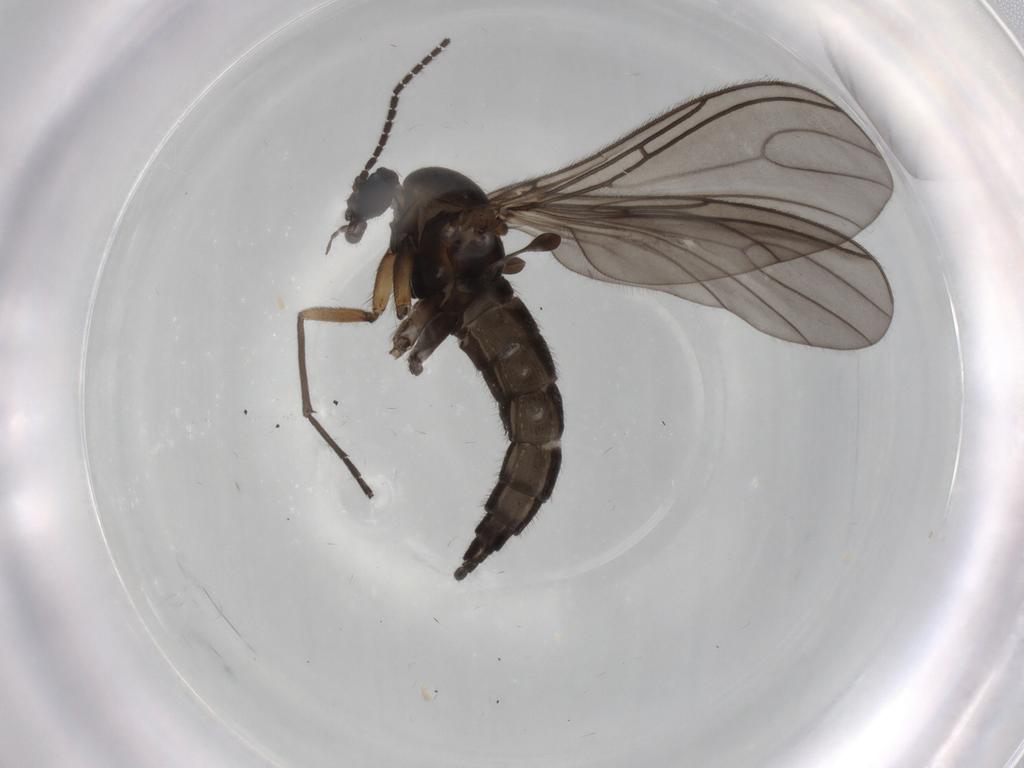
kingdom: Animalia
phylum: Arthropoda
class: Insecta
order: Diptera
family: Sciaridae
